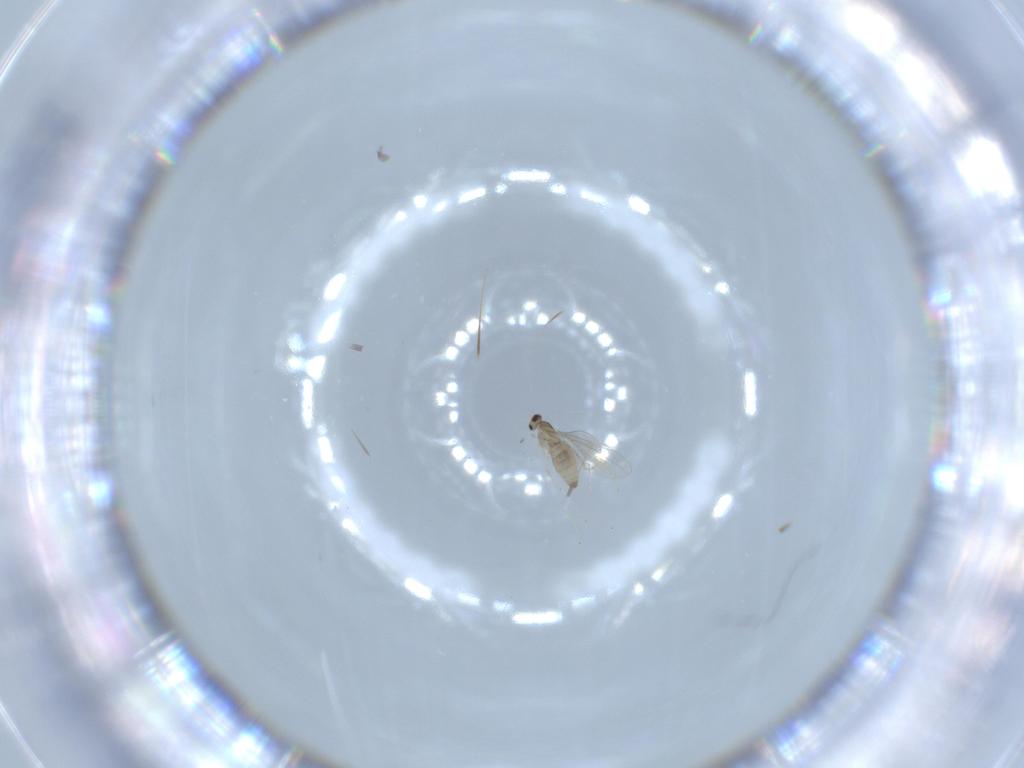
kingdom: Animalia
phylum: Arthropoda
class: Insecta
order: Diptera
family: Cecidomyiidae
